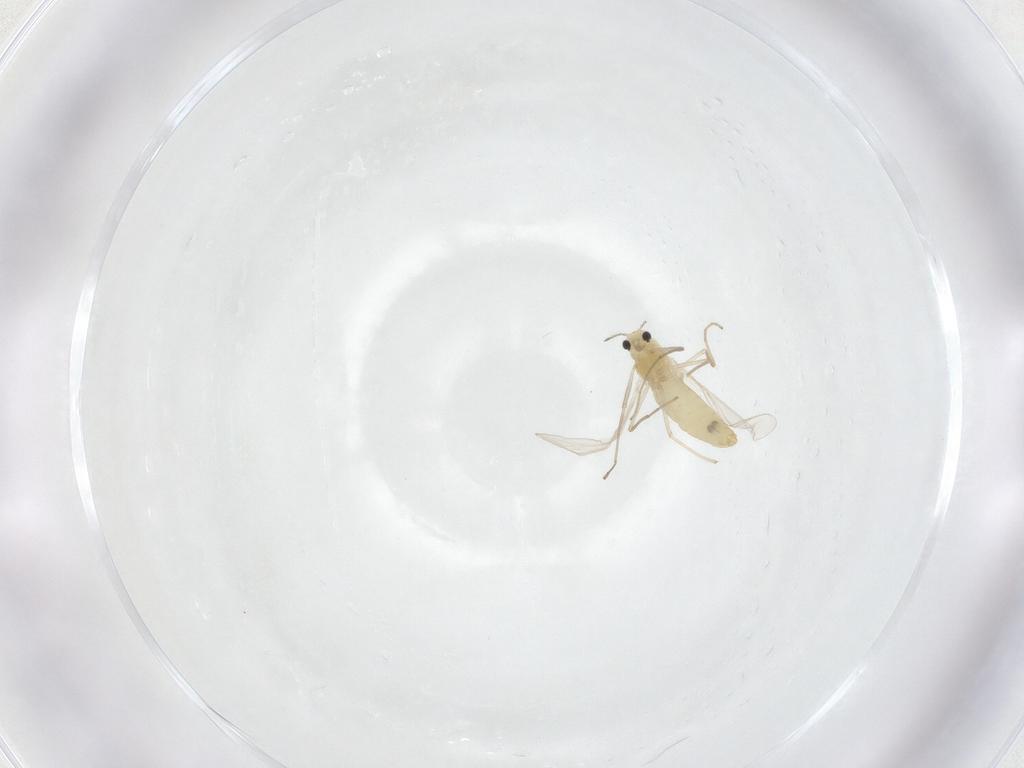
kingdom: Animalia
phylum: Arthropoda
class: Insecta
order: Diptera
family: Chironomidae
